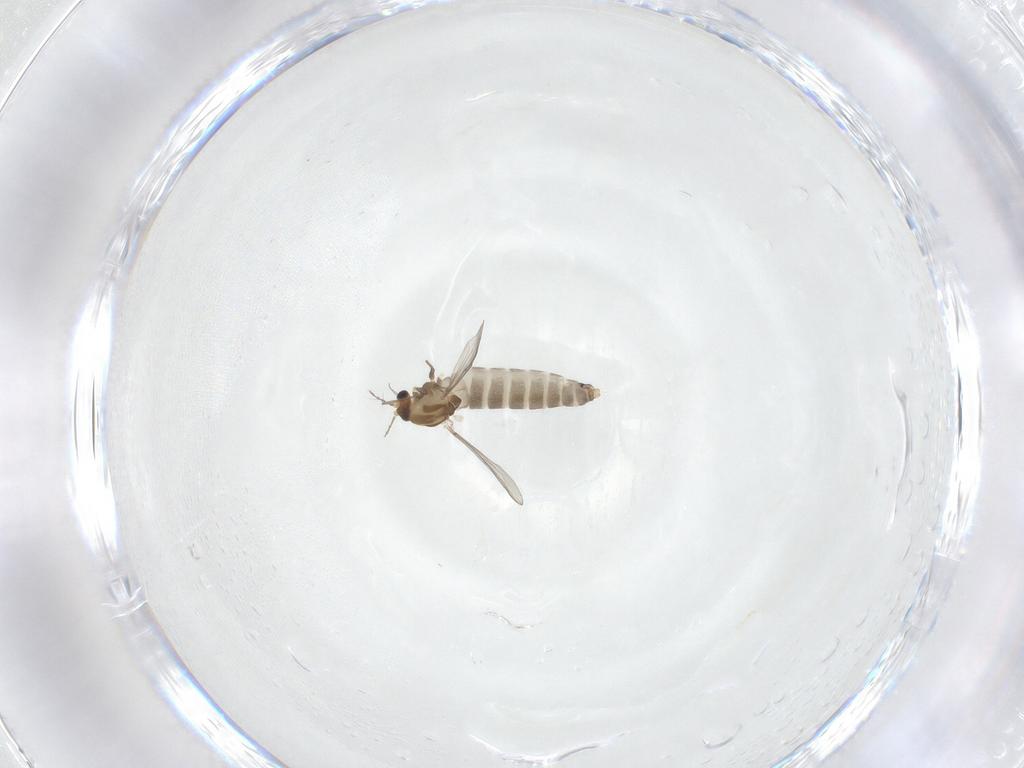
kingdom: Animalia
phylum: Arthropoda
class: Insecta
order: Diptera
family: Chironomidae
